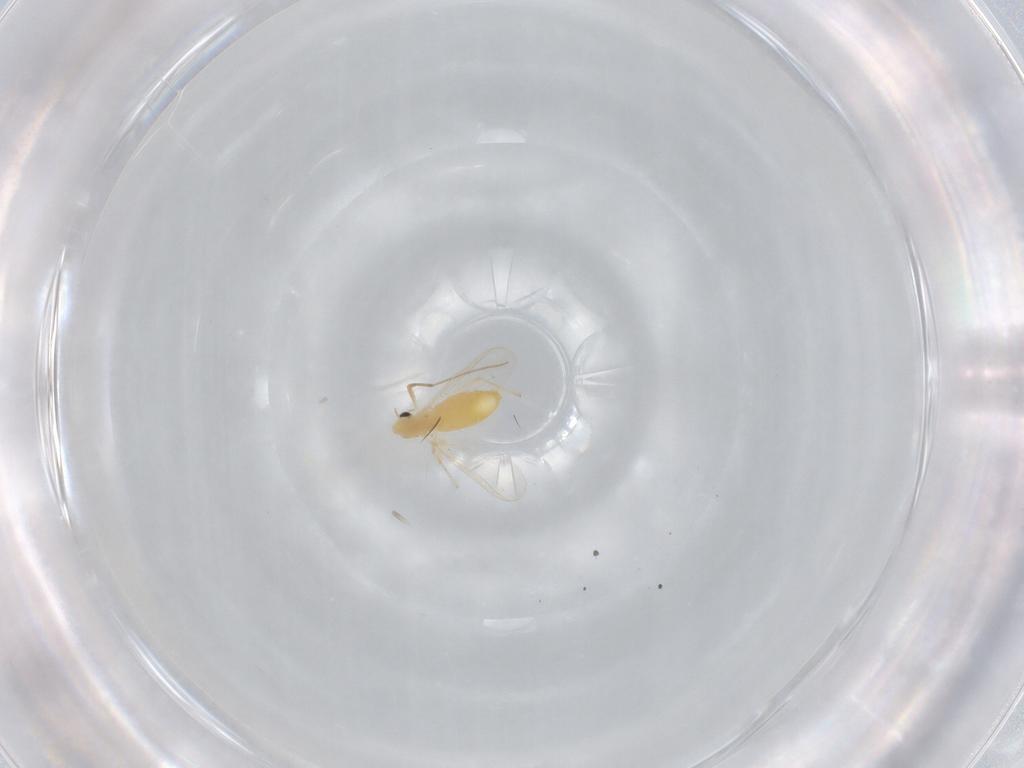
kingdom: Animalia
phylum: Arthropoda
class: Insecta
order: Diptera
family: Chironomidae
